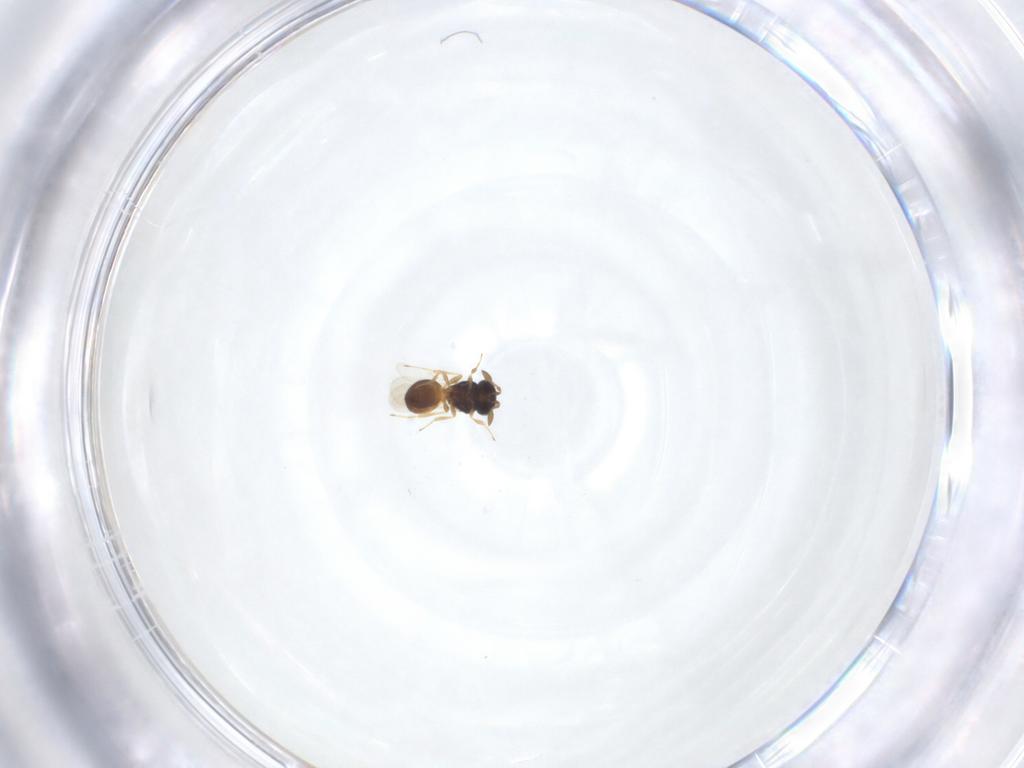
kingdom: Animalia
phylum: Arthropoda
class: Insecta
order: Hymenoptera
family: Scelionidae
